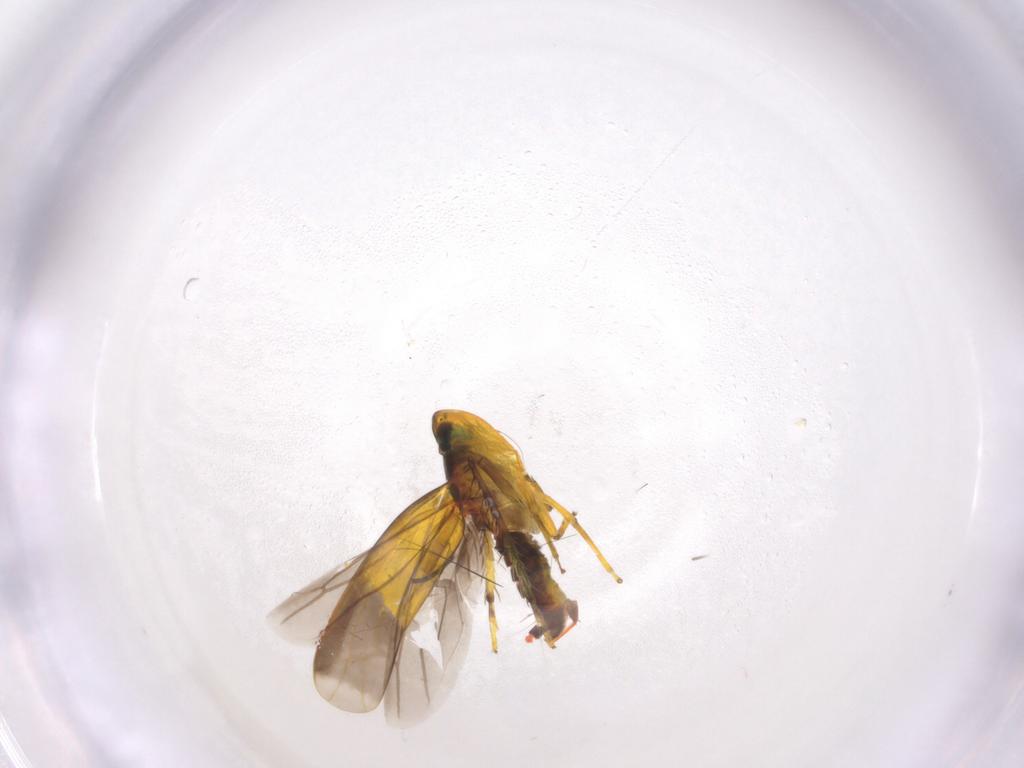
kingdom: Animalia
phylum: Arthropoda
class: Insecta
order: Hemiptera
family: Cicadellidae
